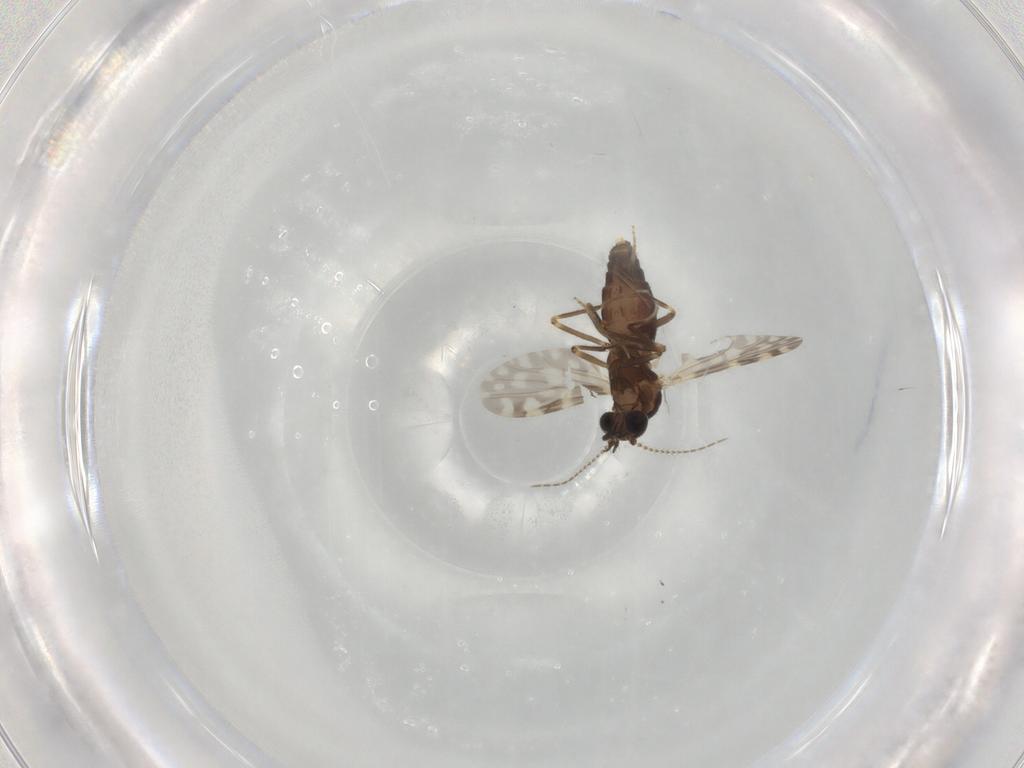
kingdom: Animalia
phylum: Arthropoda
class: Insecta
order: Diptera
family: Ceratopogonidae
